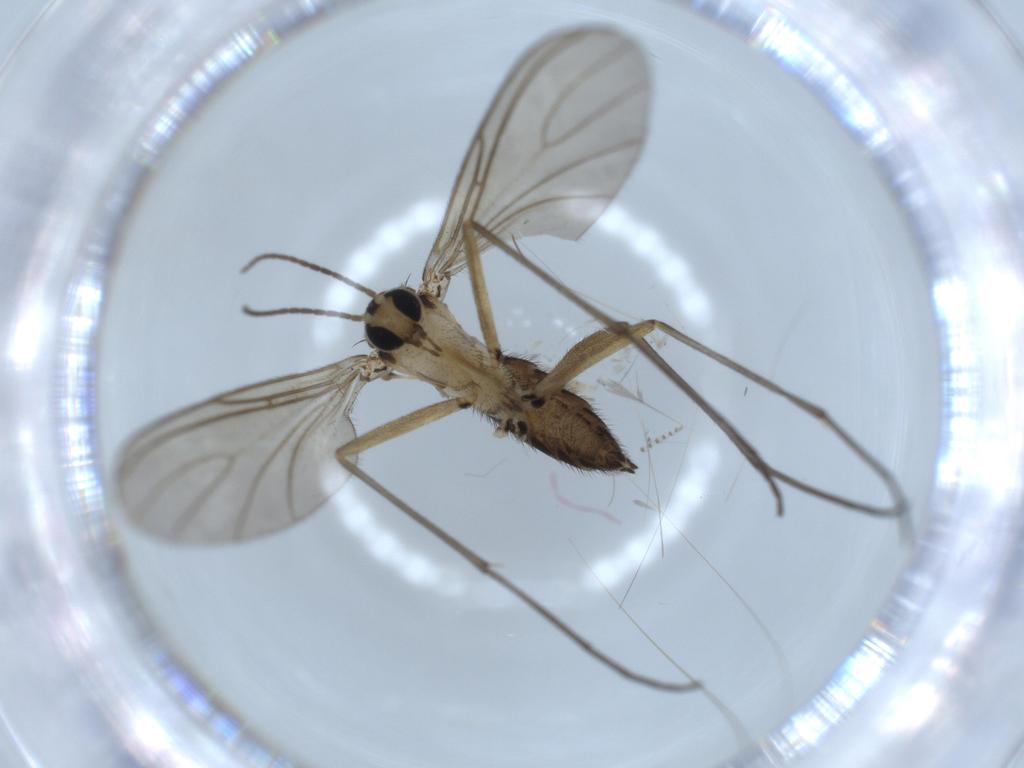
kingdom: Animalia
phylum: Arthropoda
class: Insecta
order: Diptera
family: Sciaridae
